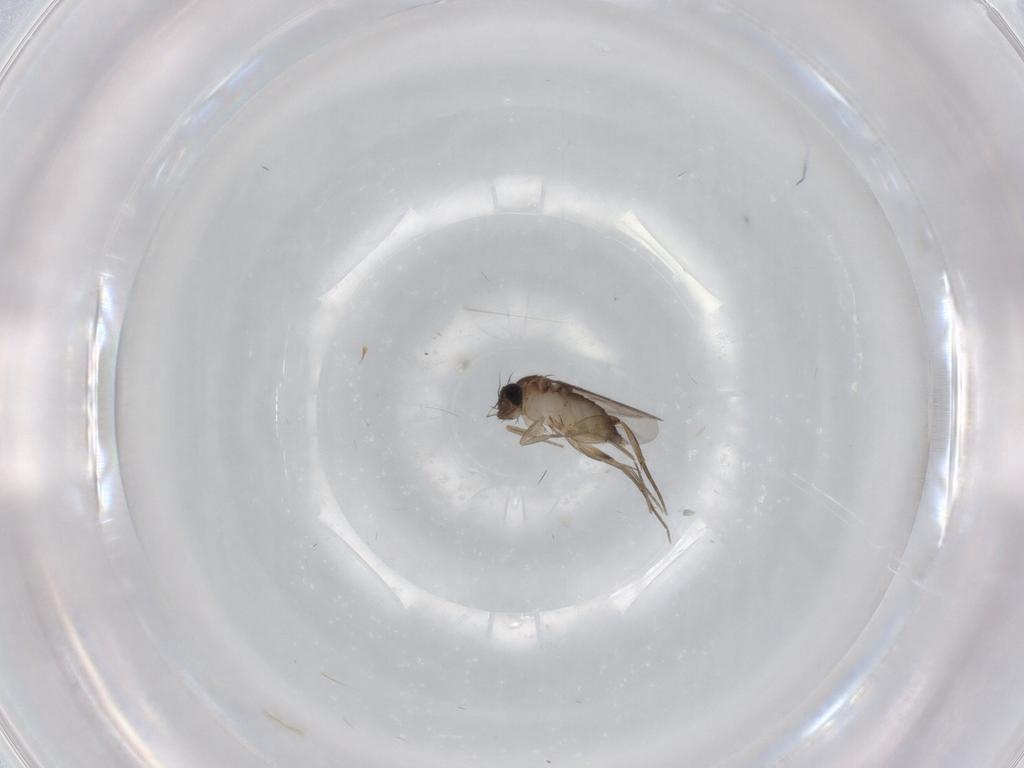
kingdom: Animalia
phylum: Arthropoda
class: Insecta
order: Diptera
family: Phoridae
